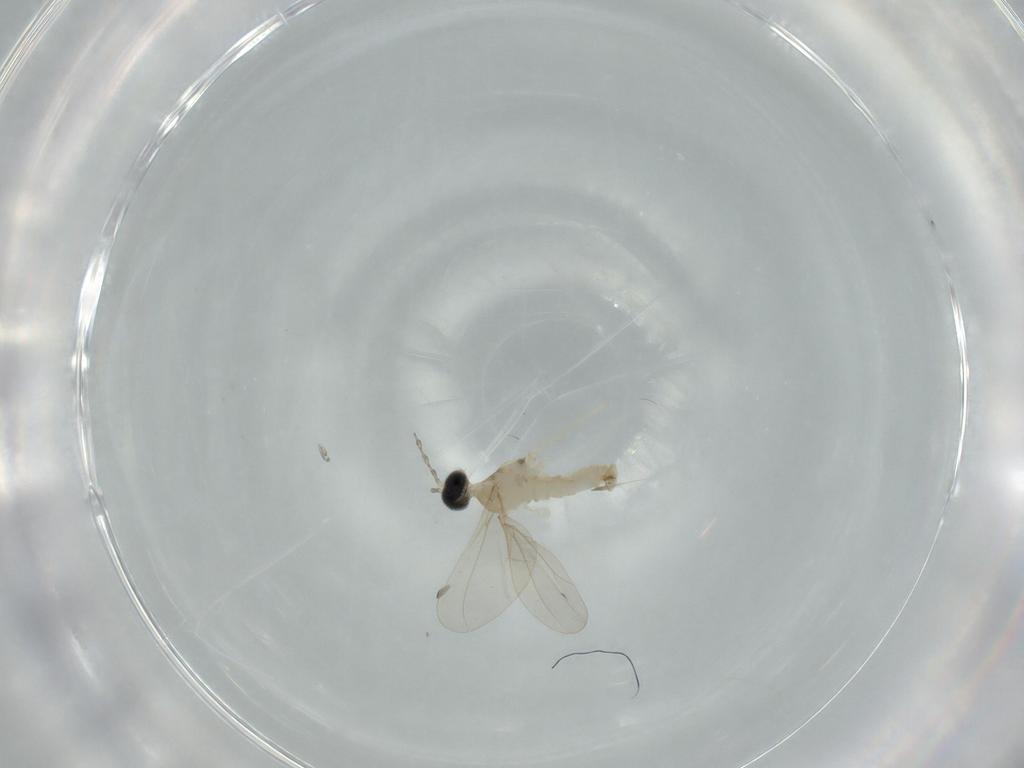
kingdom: Animalia
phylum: Arthropoda
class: Insecta
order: Diptera
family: Cecidomyiidae
